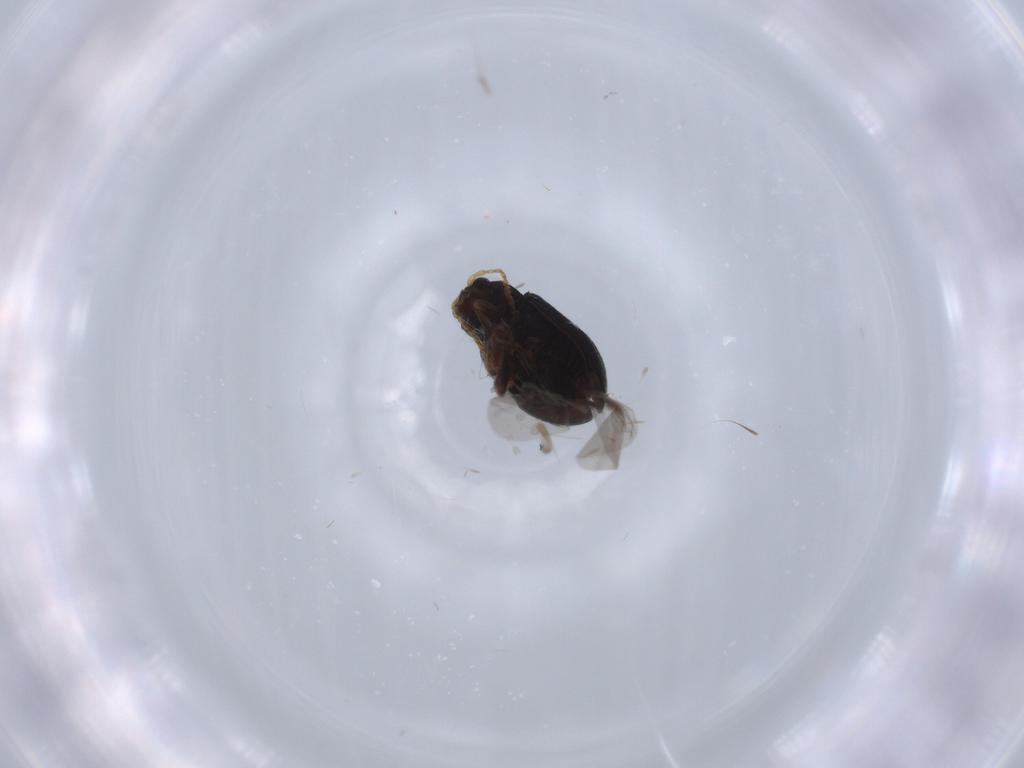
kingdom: Animalia
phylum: Arthropoda
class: Insecta
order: Coleoptera
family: Chrysomelidae
